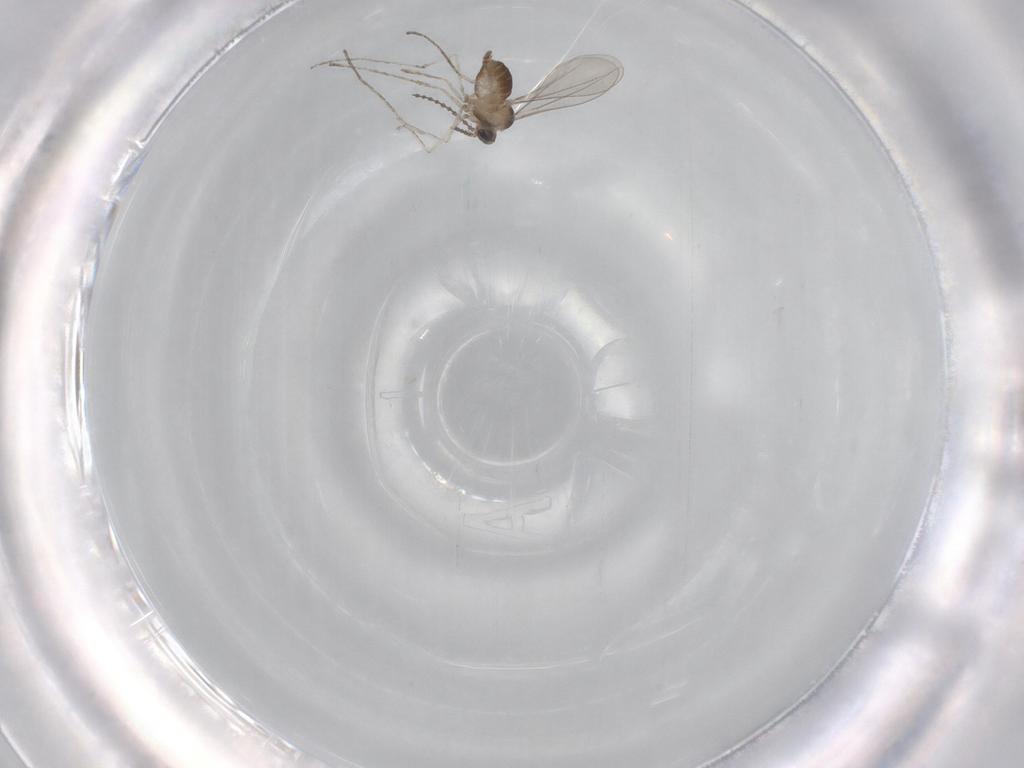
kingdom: Animalia
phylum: Arthropoda
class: Insecta
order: Diptera
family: Cecidomyiidae
